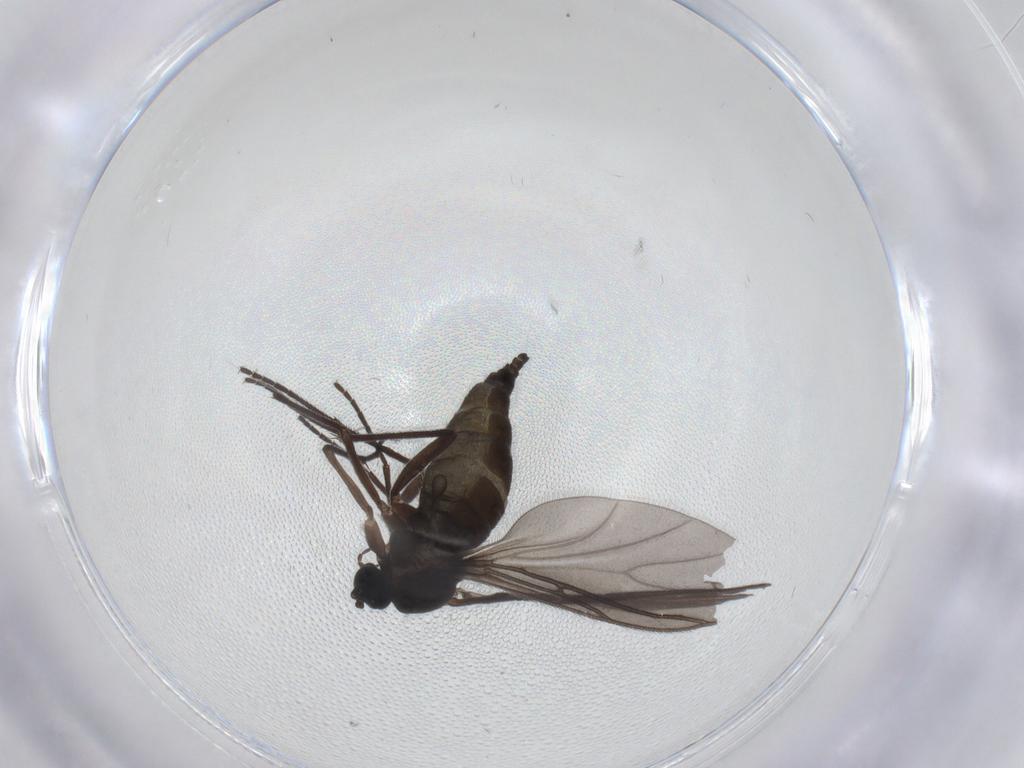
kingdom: Animalia
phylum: Arthropoda
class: Insecta
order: Diptera
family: Sciaridae
